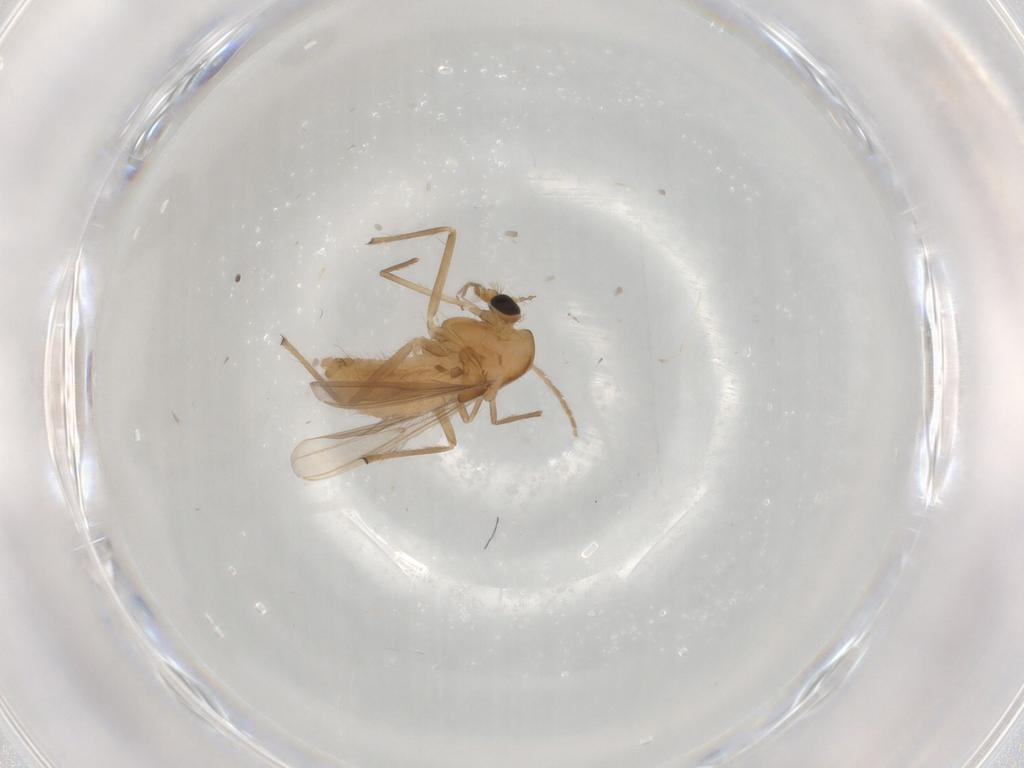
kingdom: Animalia
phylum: Arthropoda
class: Insecta
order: Diptera
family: Chironomidae
